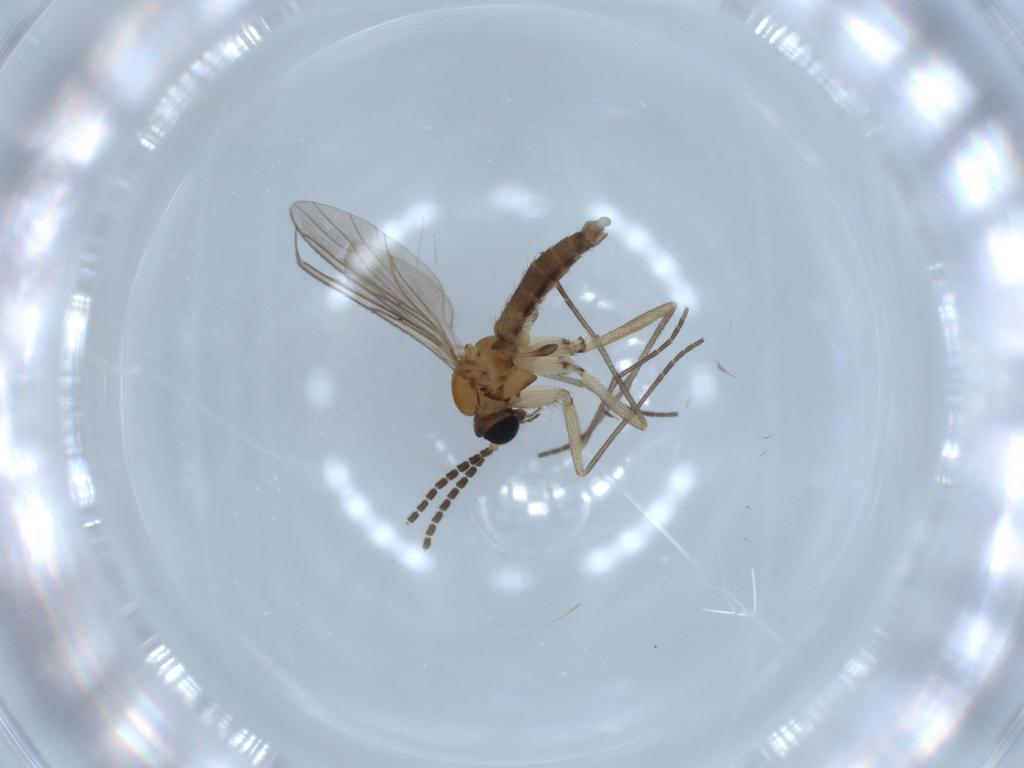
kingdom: Animalia
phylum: Arthropoda
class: Insecta
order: Diptera
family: Sciaridae
